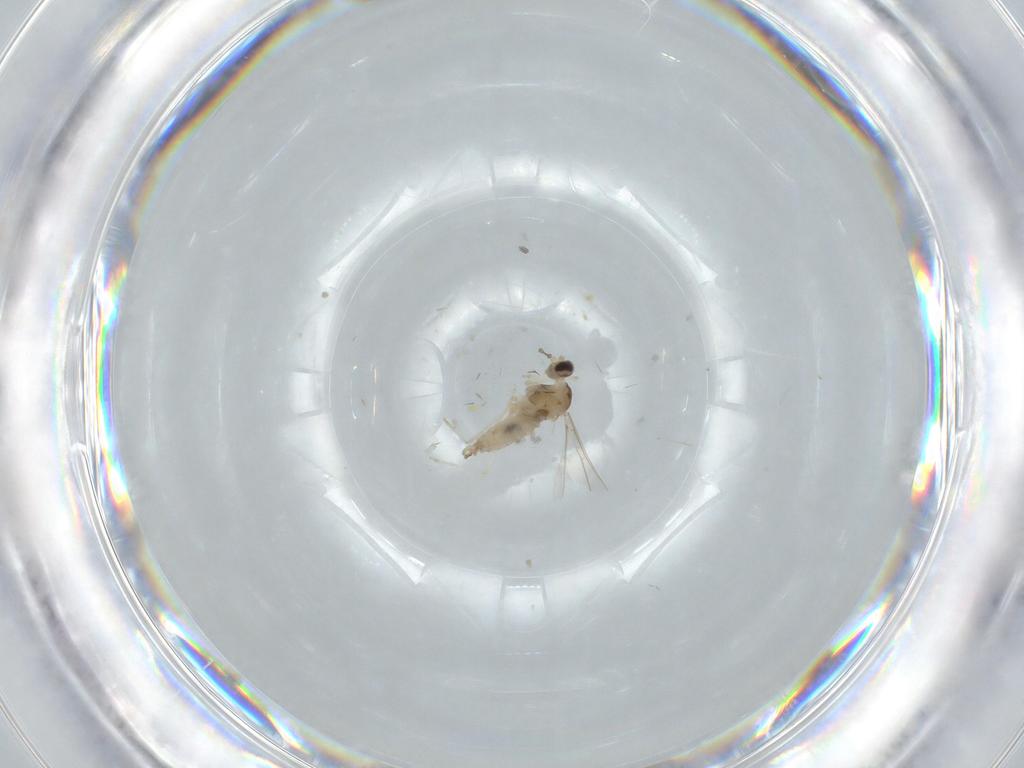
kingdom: Animalia
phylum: Arthropoda
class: Insecta
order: Diptera
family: Cecidomyiidae
